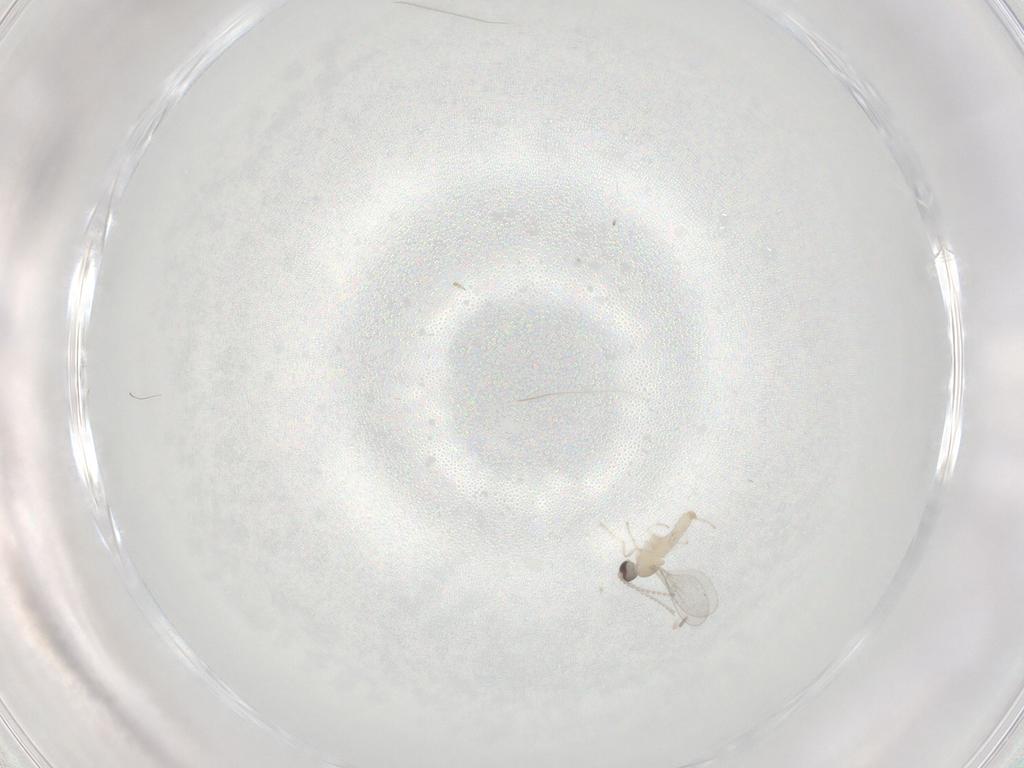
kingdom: Animalia
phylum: Arthropoda
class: Insecta
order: Diptera
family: Cecidomyiidae
